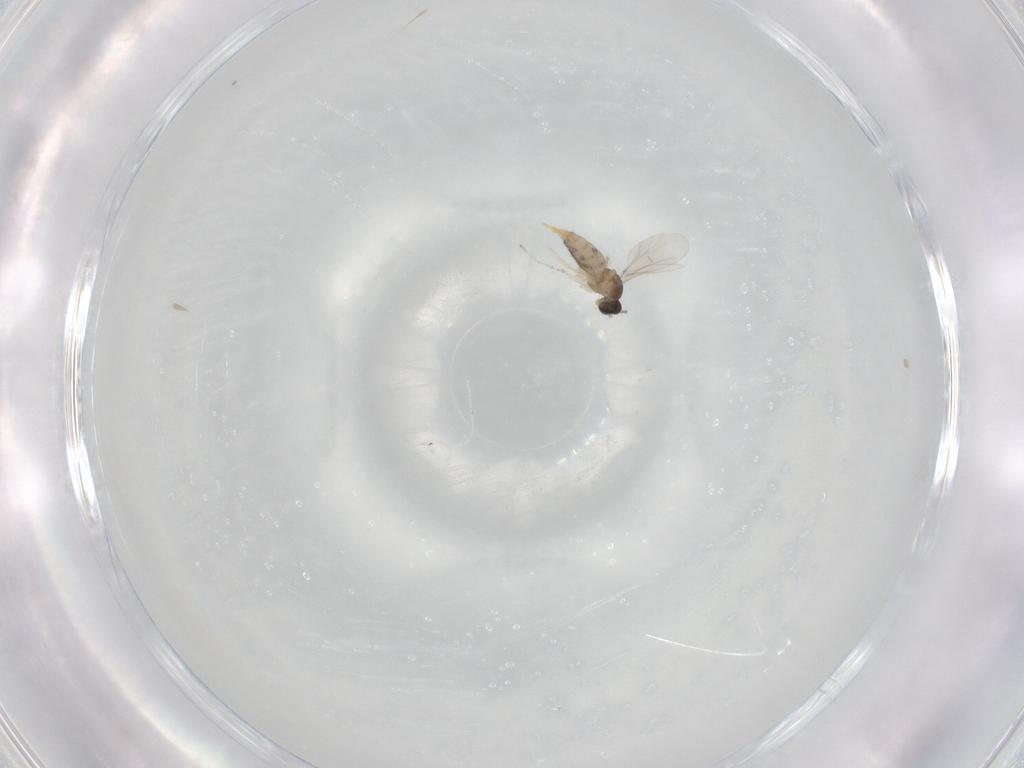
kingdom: Animalia
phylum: Arthropoda
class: Insecta
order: Diptera
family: Cecidomyiidae
